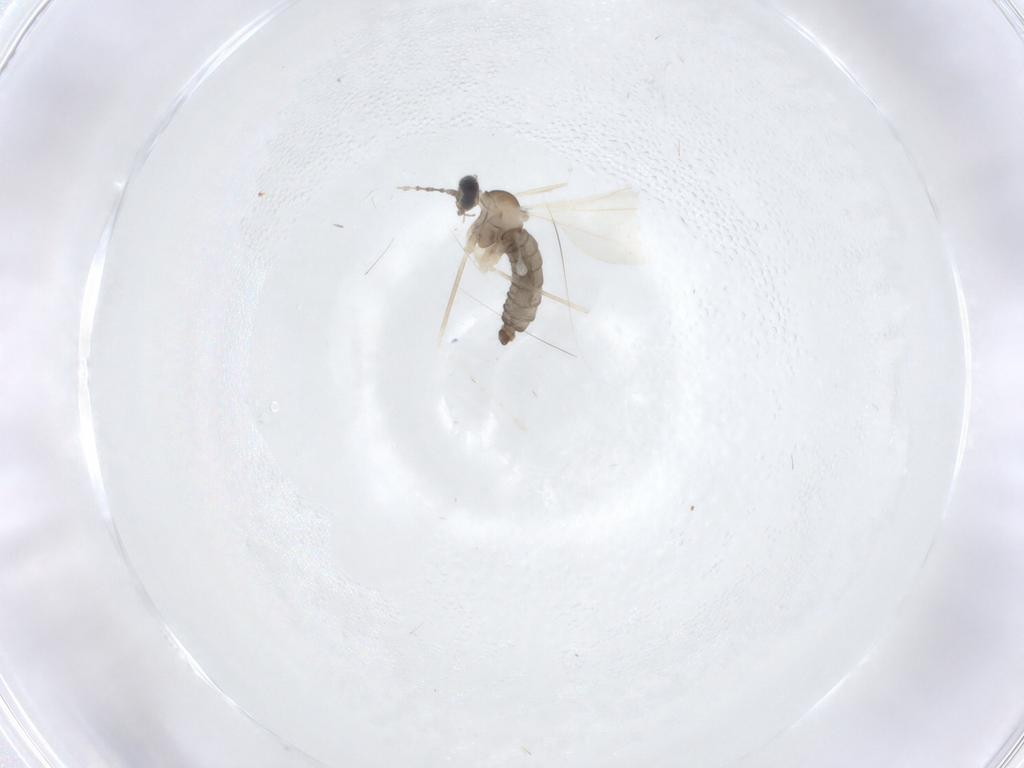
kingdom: Animalia
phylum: Arthropoda
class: Insecta
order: Diptera
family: Cecidomyiidae
